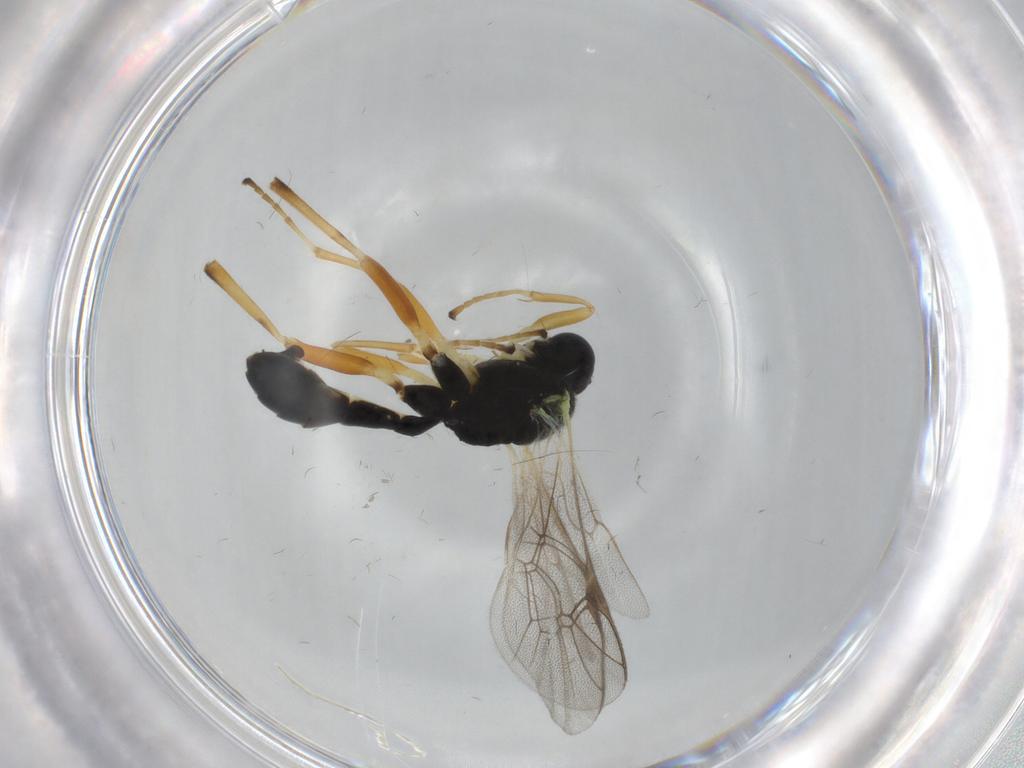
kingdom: Animalia
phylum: Arthropoda
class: Insecta
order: Hymenoptera
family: Ichneumonidae
